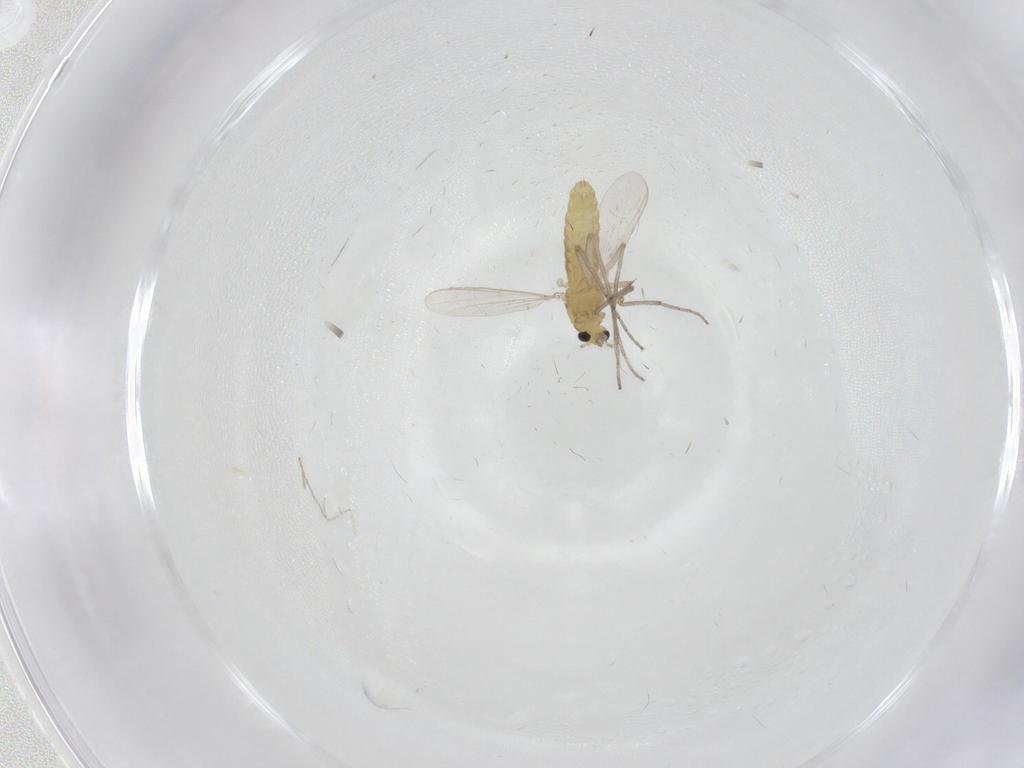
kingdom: Animalia
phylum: Arthropoda
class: Insecta
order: Diptera
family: Chironomidae
